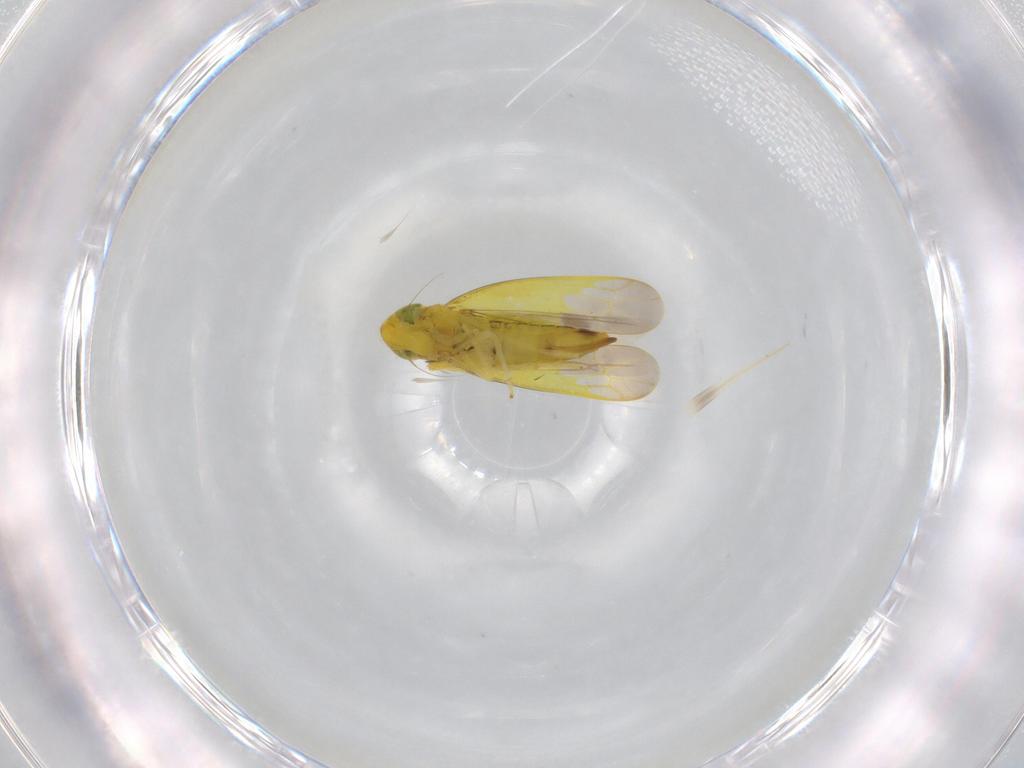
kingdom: Animalia
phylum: Arthropoda
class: Insecta
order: Hemiptera
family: Cicadellidae
